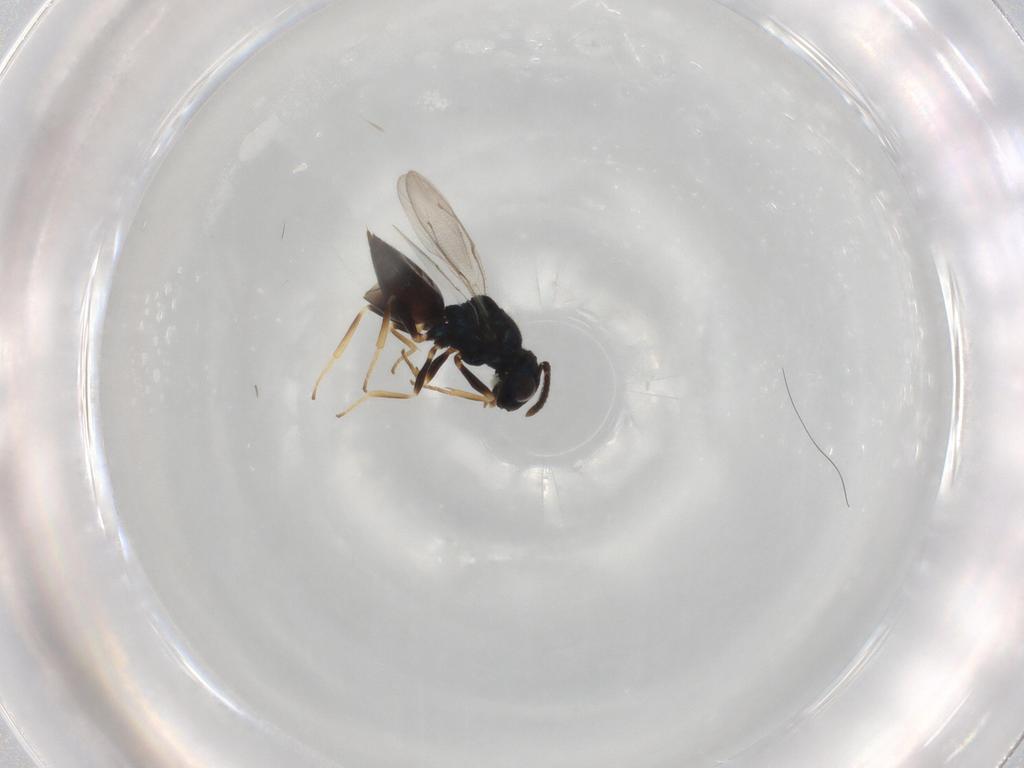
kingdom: Animalia
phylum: Arthropoda
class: Insecta
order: Hymenoptera
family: Pteromalidae
